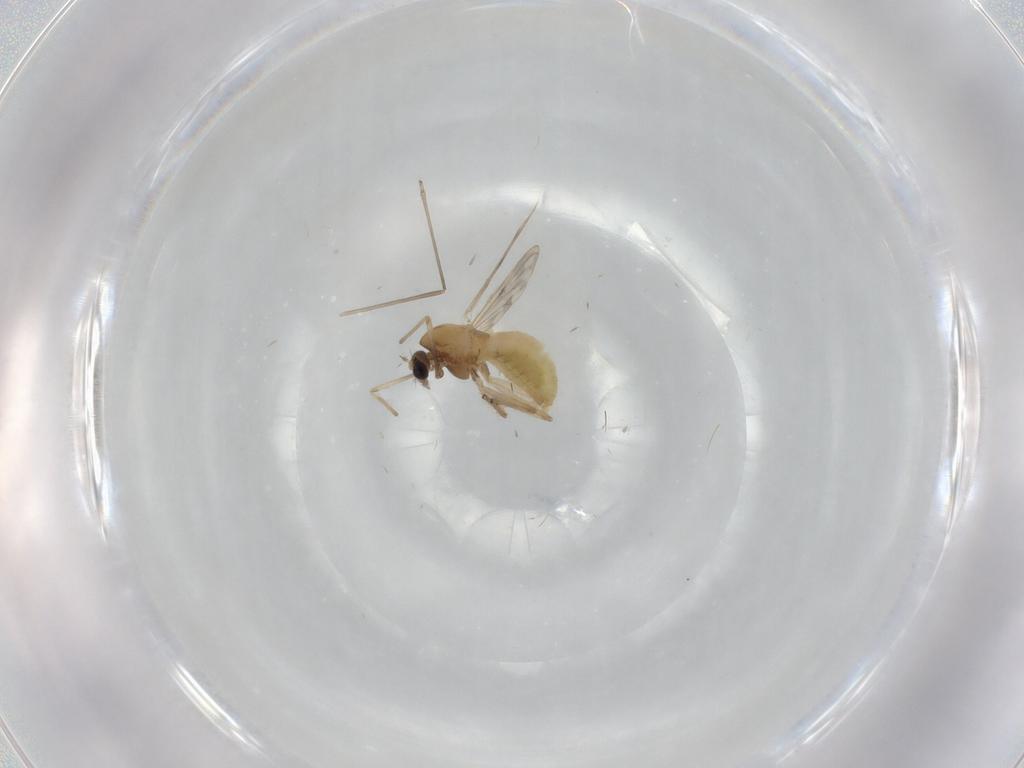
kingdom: Animalia
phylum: Arthropoda
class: Insecta
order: Diptera
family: Chironomidae
